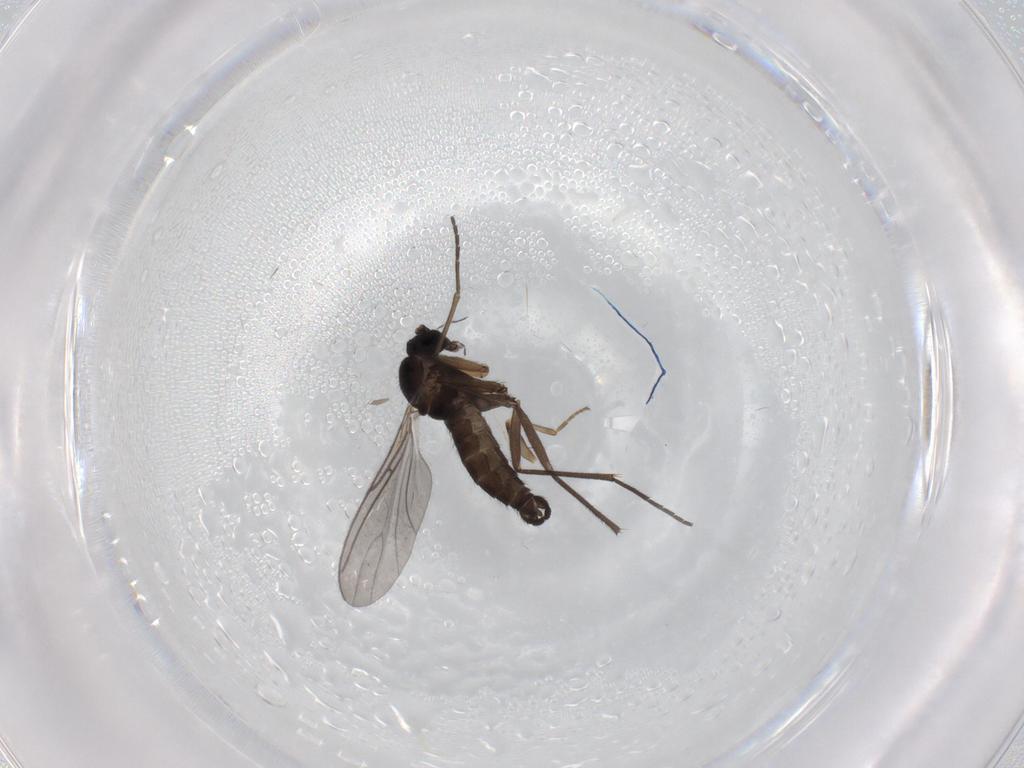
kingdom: Animalia
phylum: Arthropoda
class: Insecta
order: Diptera
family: Sciaridae
